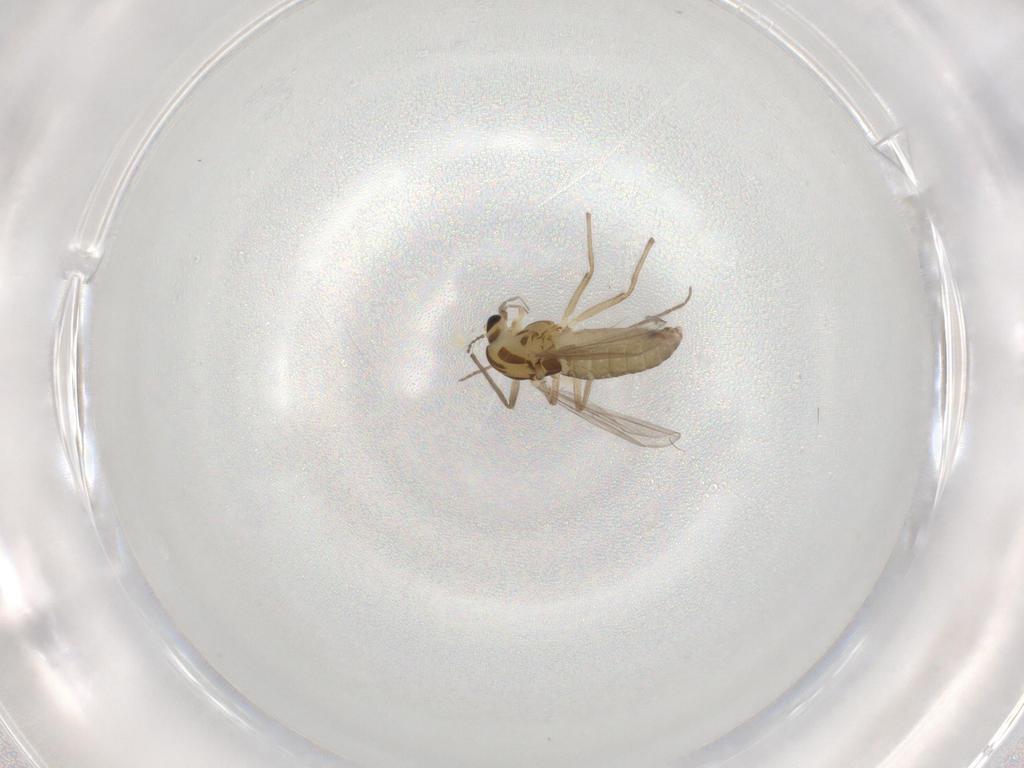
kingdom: Animalia
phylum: Arthropoda
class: Insecta
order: Diptera
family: Chironomidae
